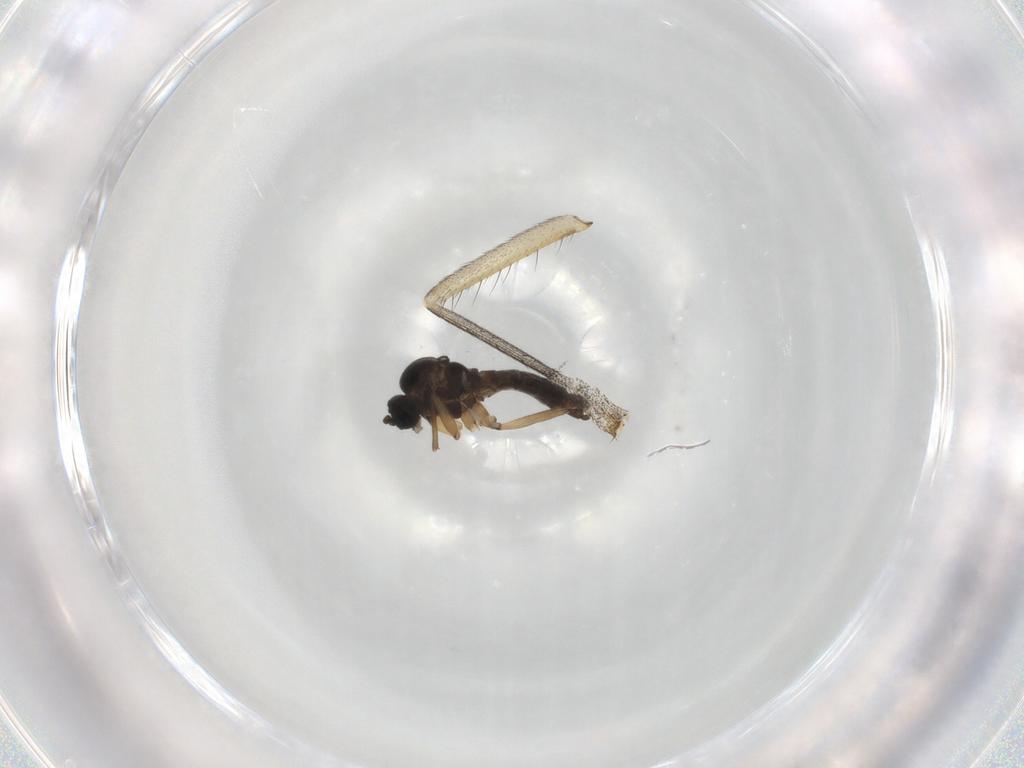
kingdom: Animalia
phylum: Arthropoda
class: Insecta
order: Diptera
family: Mycetophilidae
